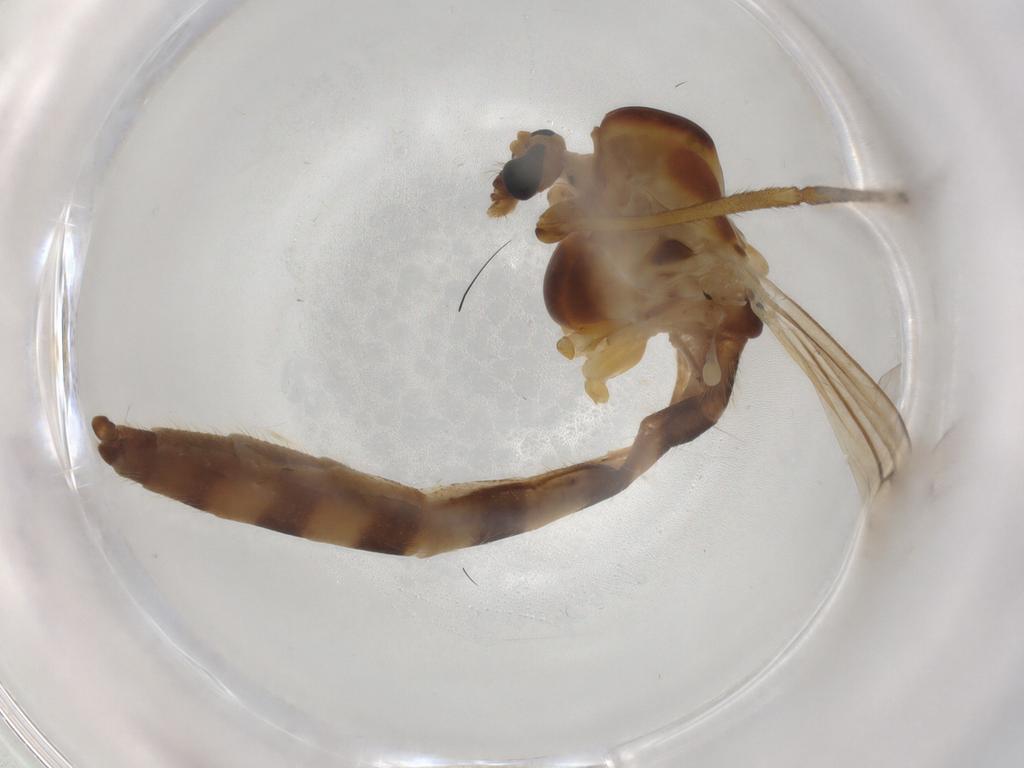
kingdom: Animalia
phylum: Arthropoda
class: Insecta
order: Diptera
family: Chironomidae
